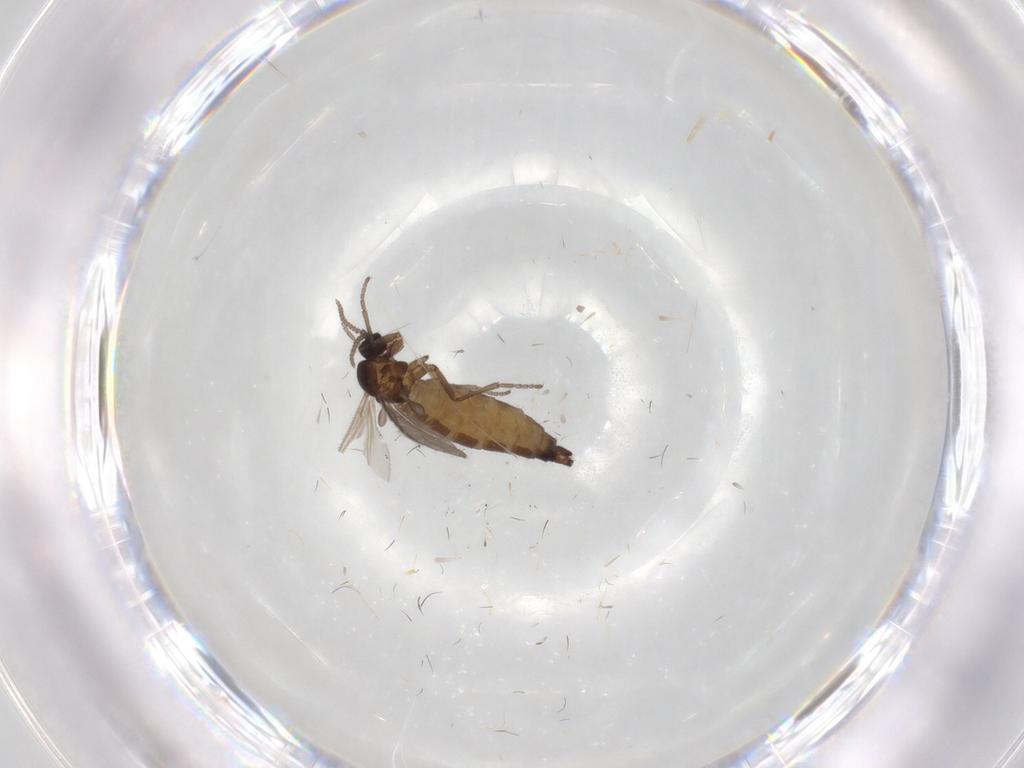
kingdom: Animalia
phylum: Arthropoda
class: Insecta
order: Diptera
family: Sciaridae
